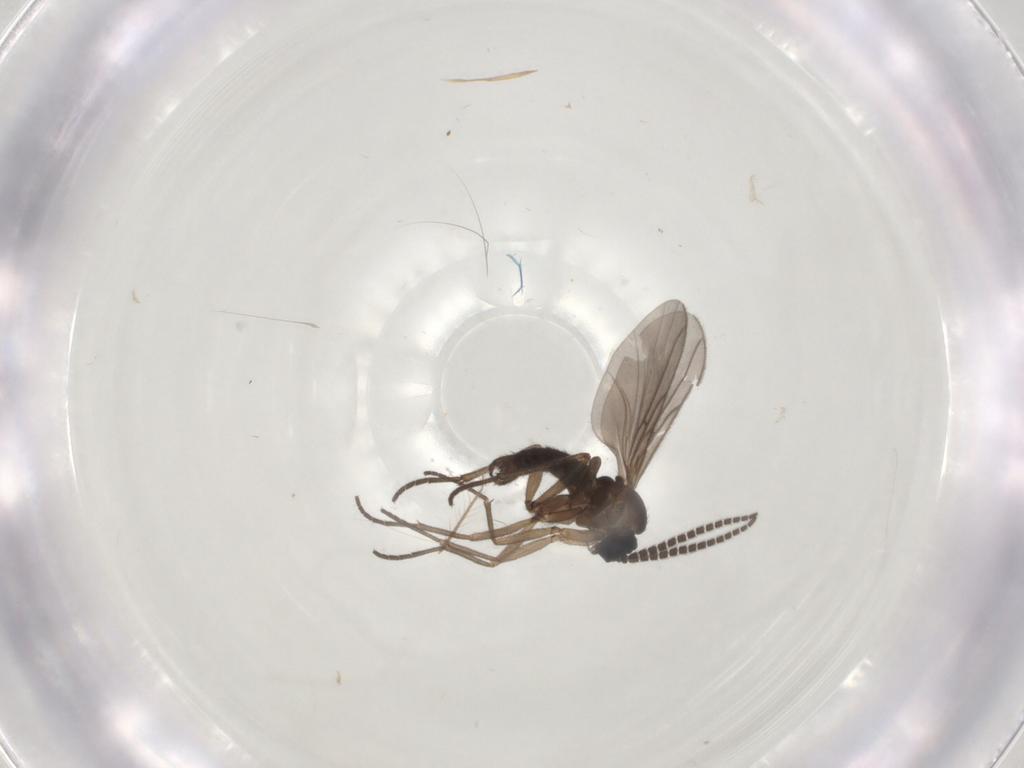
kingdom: Animalia
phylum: Arthropoda
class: Insecta
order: Diptera
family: Sciaridae
